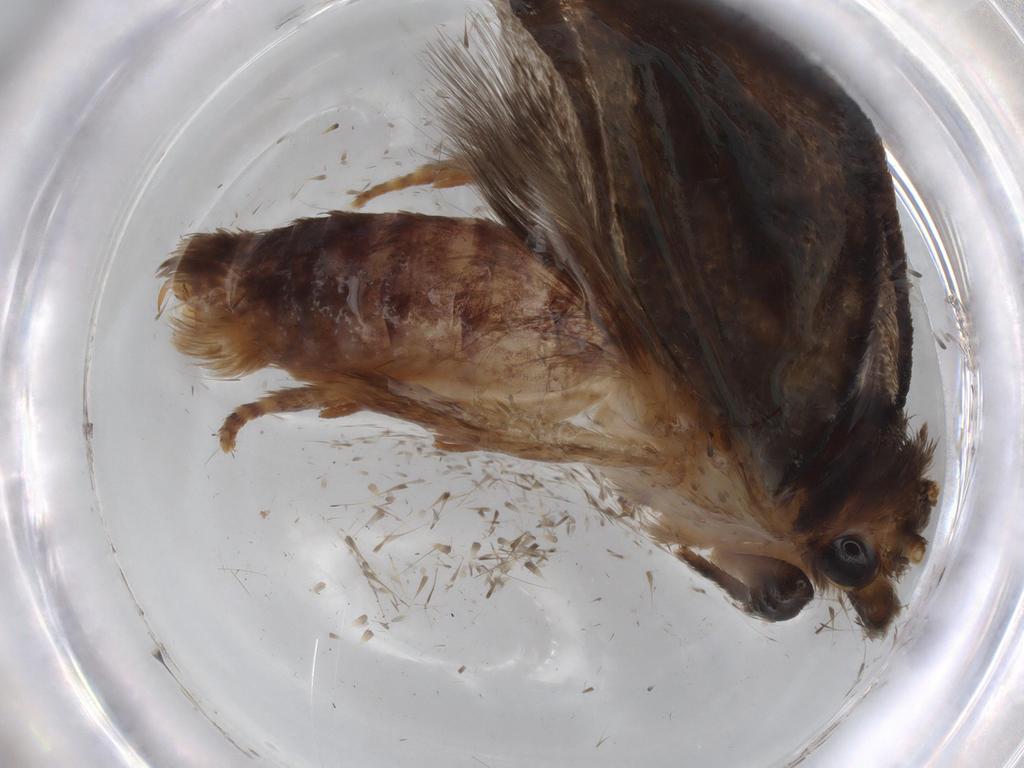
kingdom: Animalia
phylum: Arthropoda
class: Insecta
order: Lepidoptera
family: Tineidae
